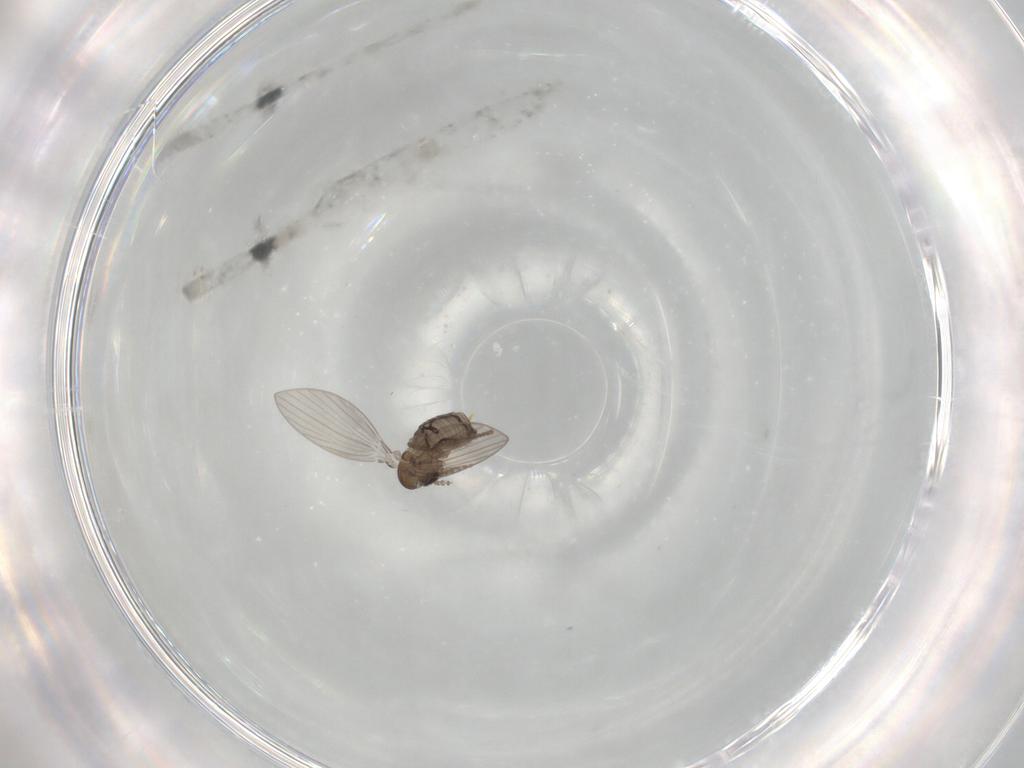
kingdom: Animalia
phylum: Arthropoda
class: Insecta
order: Diptera
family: Psychodidae
